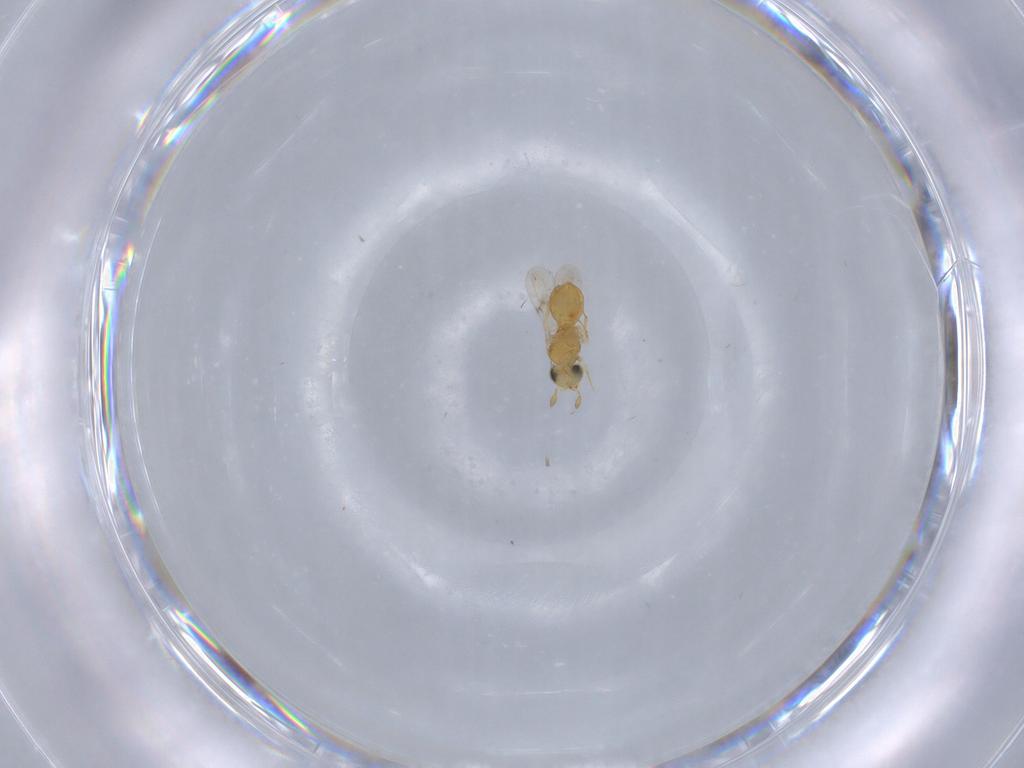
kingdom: Animalia
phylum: Arthropoda
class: Insecta
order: Hymenoptera
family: Scelionidae
